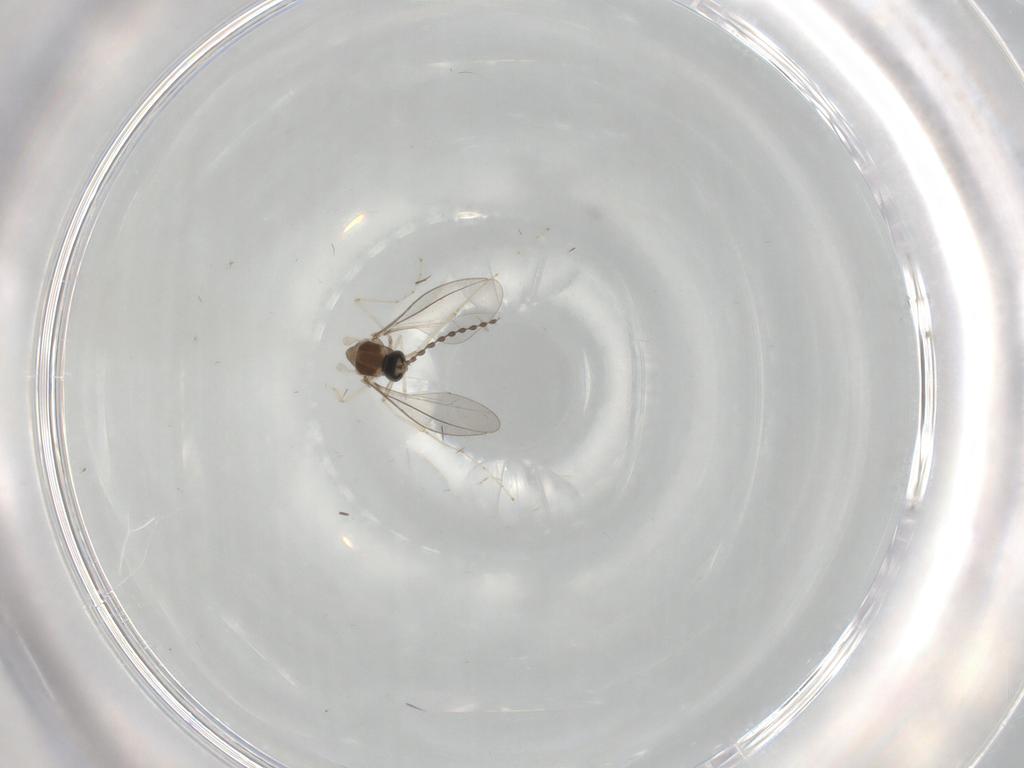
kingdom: Animalia
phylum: Arthropoda
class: Insecta
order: Diptera
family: Cecidomyiidae
